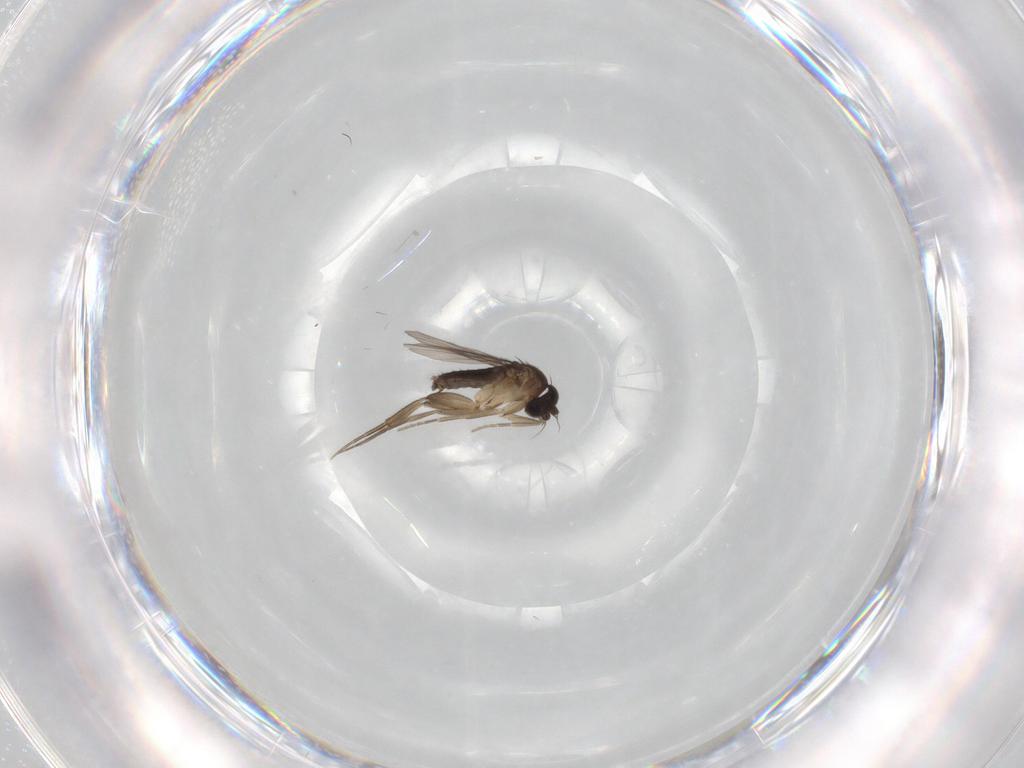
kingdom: Animalia
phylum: Arthropoda
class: Insecta
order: Diptera
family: Phoridae
